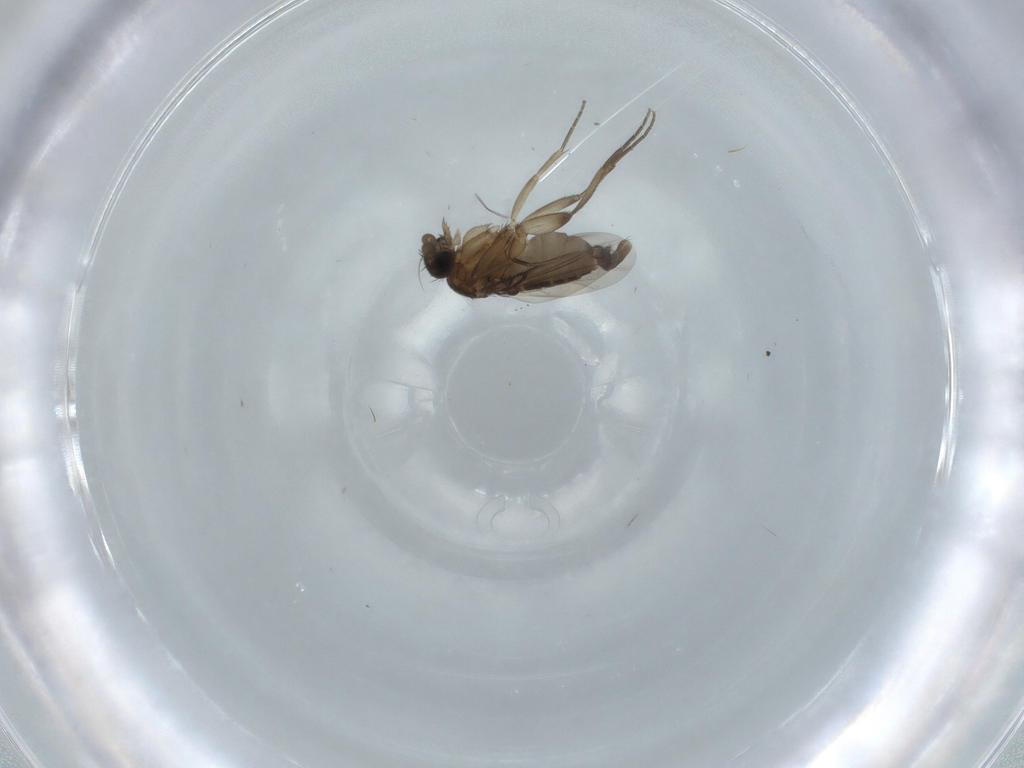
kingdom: Animalia
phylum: Arthropoda
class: Insecta
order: Diptera
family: Phoridae
